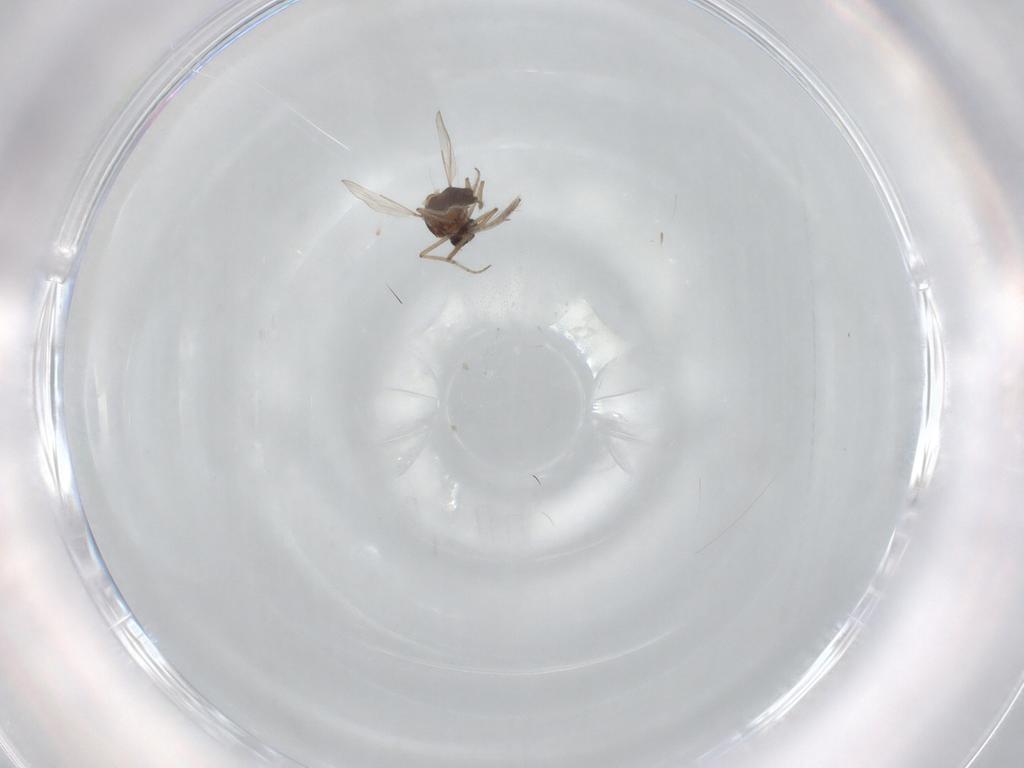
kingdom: Animalia
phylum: Arthropoda
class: Insecta
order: Diptera
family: Ceratopogonidae
